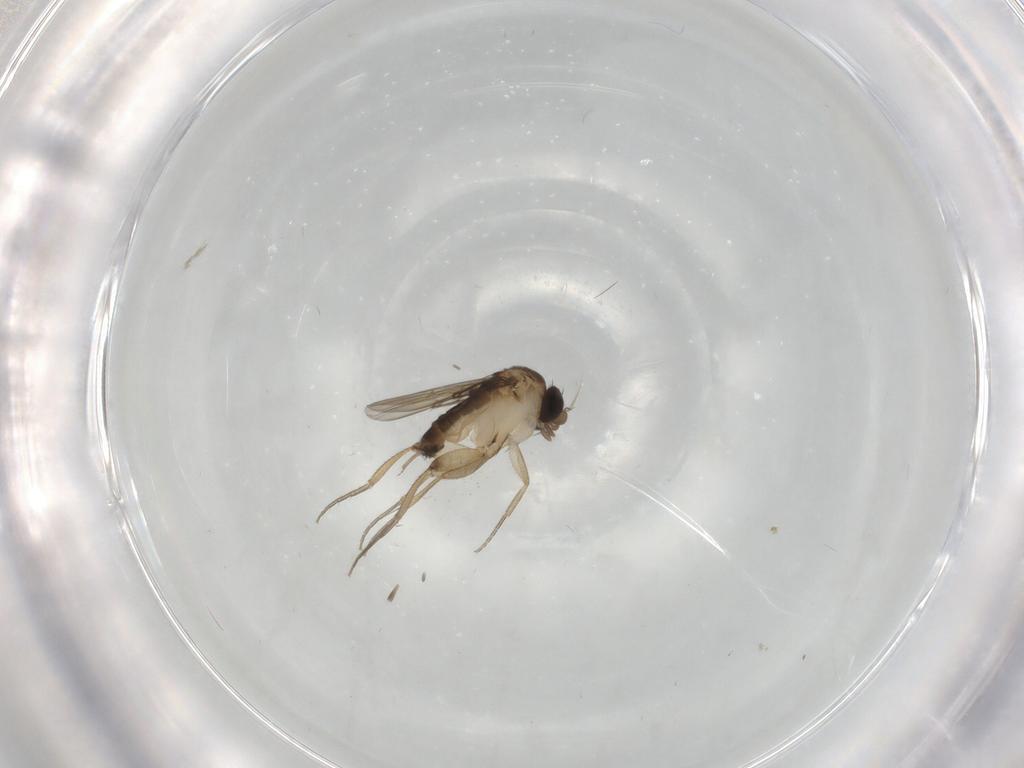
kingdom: Animalia
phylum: Arthropoda
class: Insecta
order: Diptera
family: Phoridae
